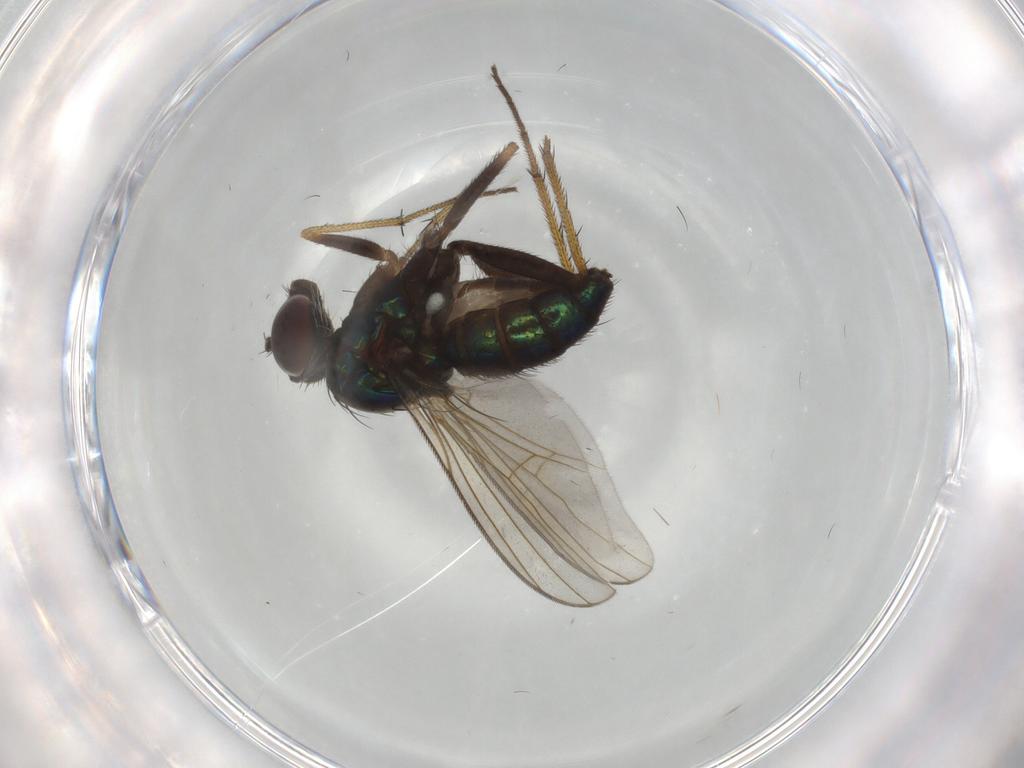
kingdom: Animalia
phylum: Arthropoda
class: Insecta
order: Diptera
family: Dolichopodidae
